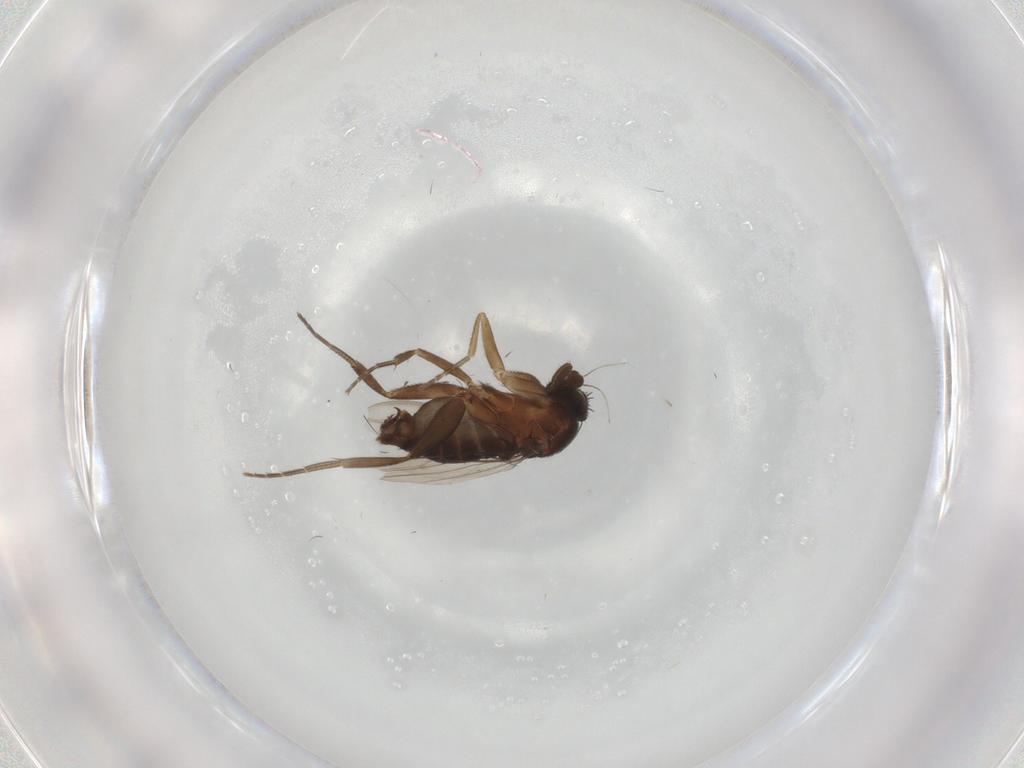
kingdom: Animalia
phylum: Arthropoda
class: Insecta
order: Diptera
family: Phoridae
